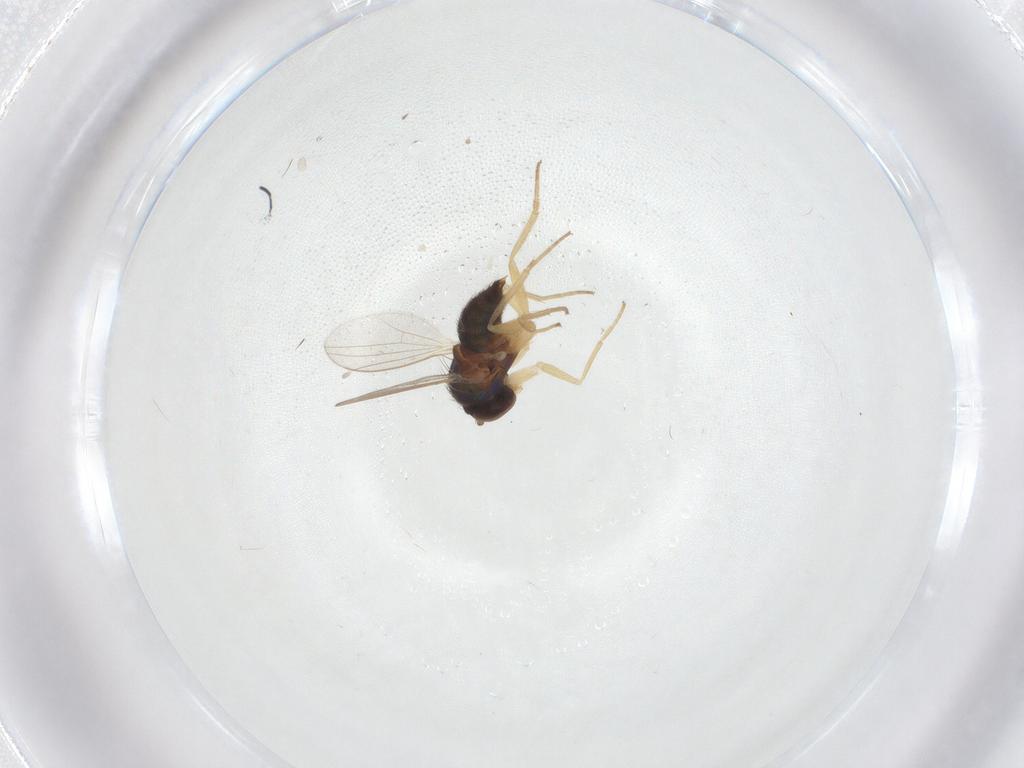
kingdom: Animalia
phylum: Arthropoda
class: Insecta
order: Diptera
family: Dolichopodidae
